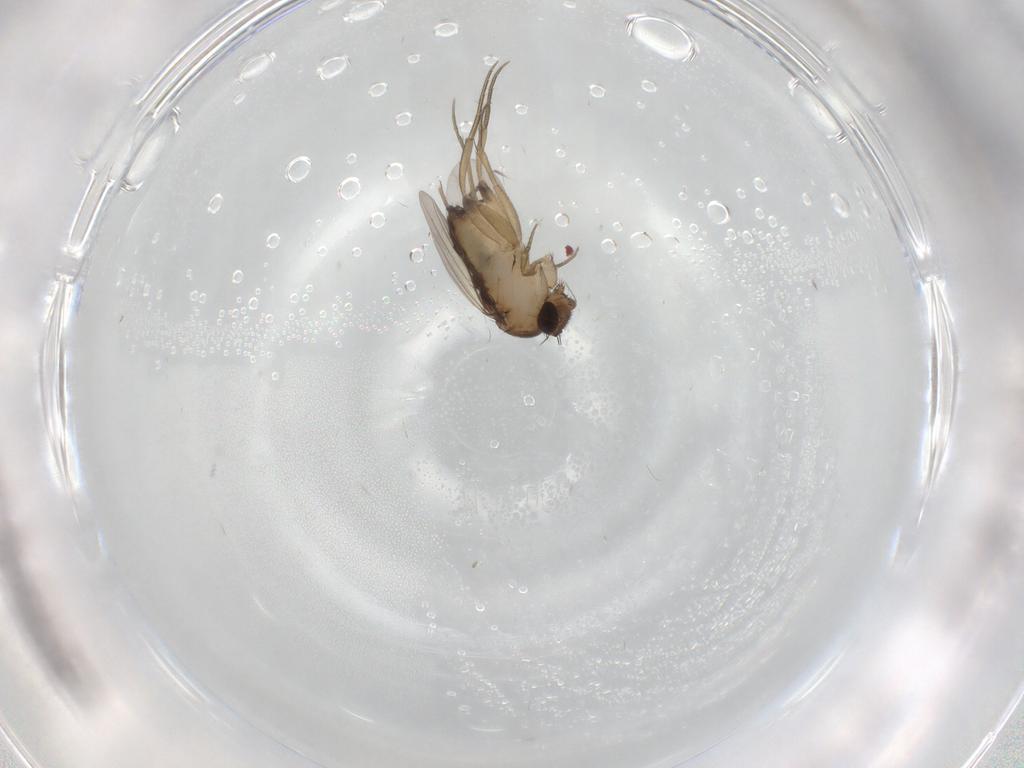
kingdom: Animalia
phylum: Arthropoda
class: Insecta
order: Diptera
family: Phoridae
